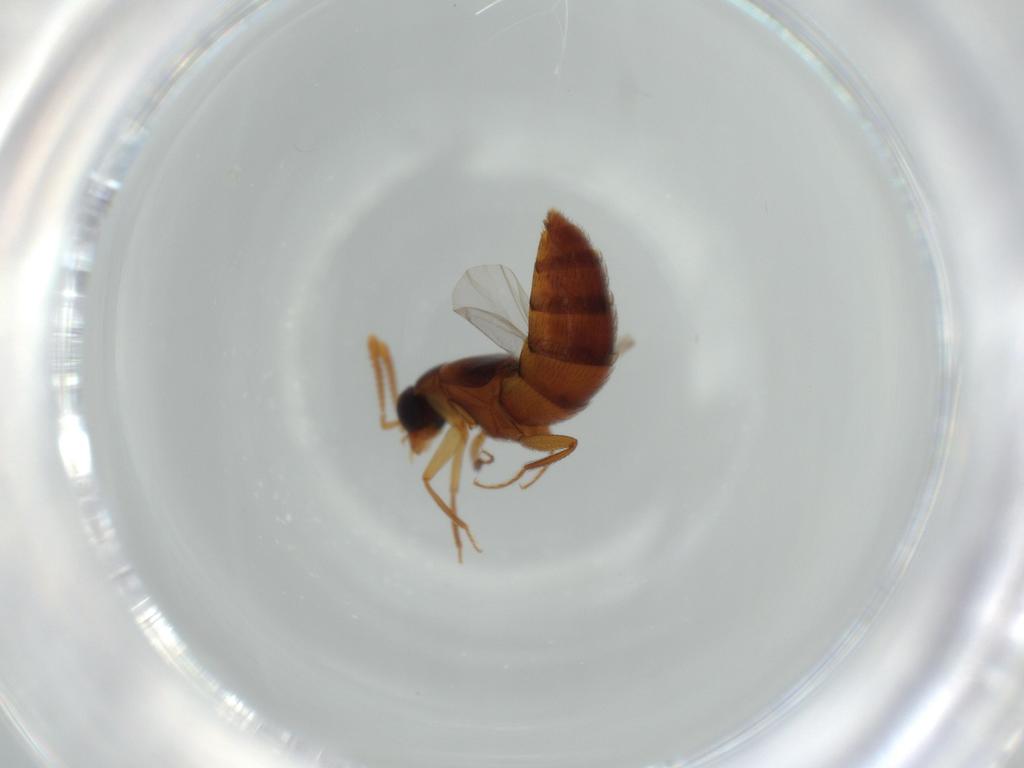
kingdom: Animalia
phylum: Arthropoda
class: Insecta
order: Coleoptera
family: Staphylinidae
